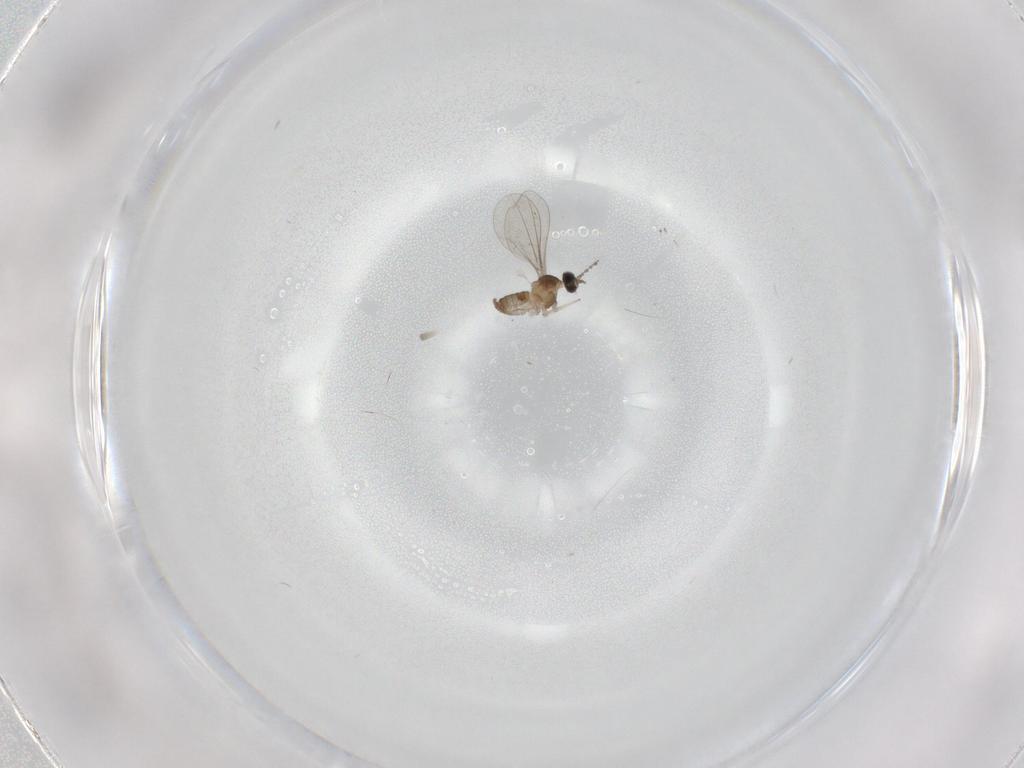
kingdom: Animalia
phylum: Arthropoda
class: Insecta
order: Diptera
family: Cecidomyiidae
